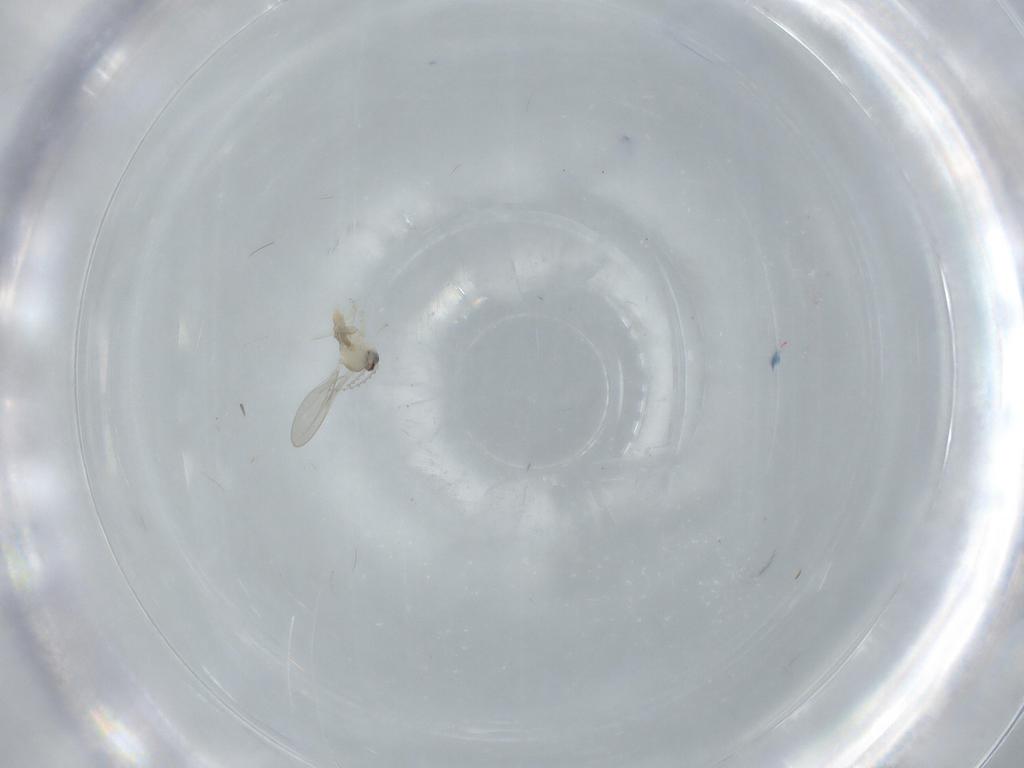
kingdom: Animalia
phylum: Arthropoda
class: Insecta
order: Diptera
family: Cecidomyiidae
